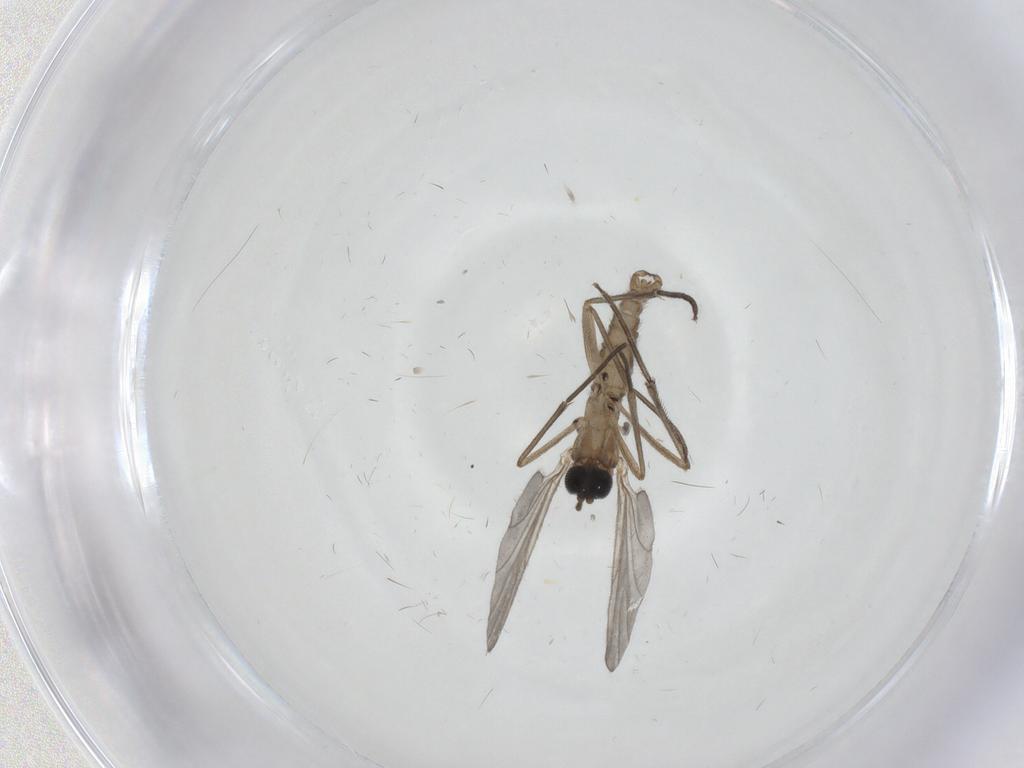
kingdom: Animalia
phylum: Arthropoda
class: Insecta
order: Diptera
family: Sciaridae
